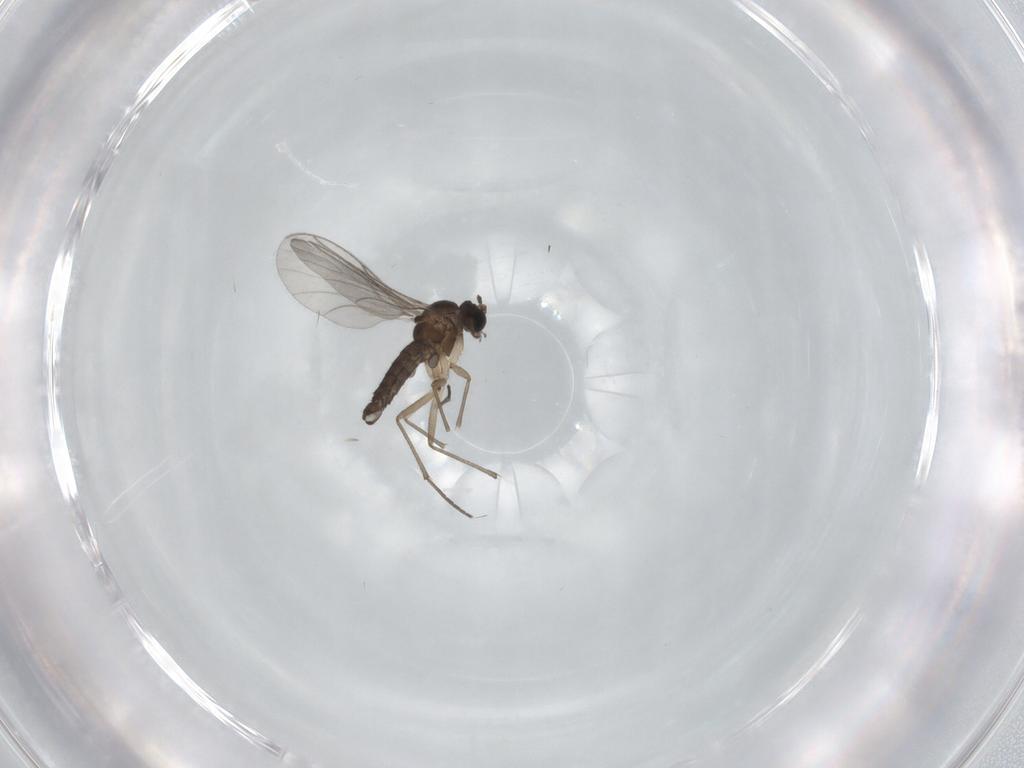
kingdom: Animalia
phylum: Arthropoda
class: Insecta
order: Diptera
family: Sciaridae
